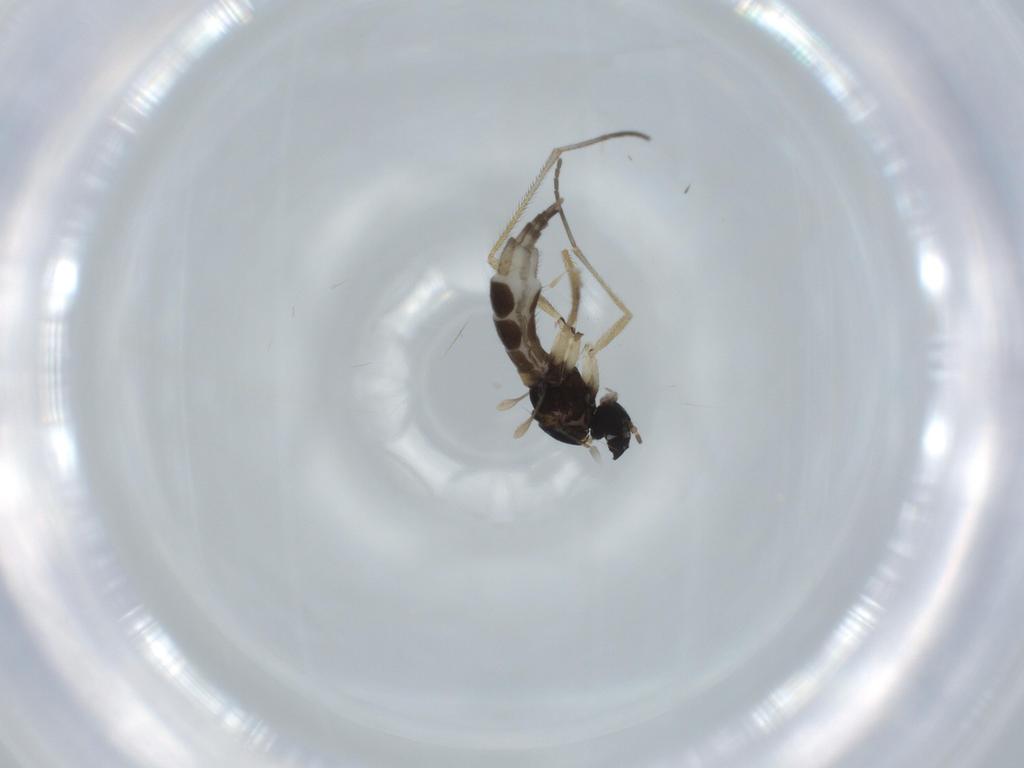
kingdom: Animalia
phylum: Arthropoda
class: Insecta
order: Diptera
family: Sciaridae
